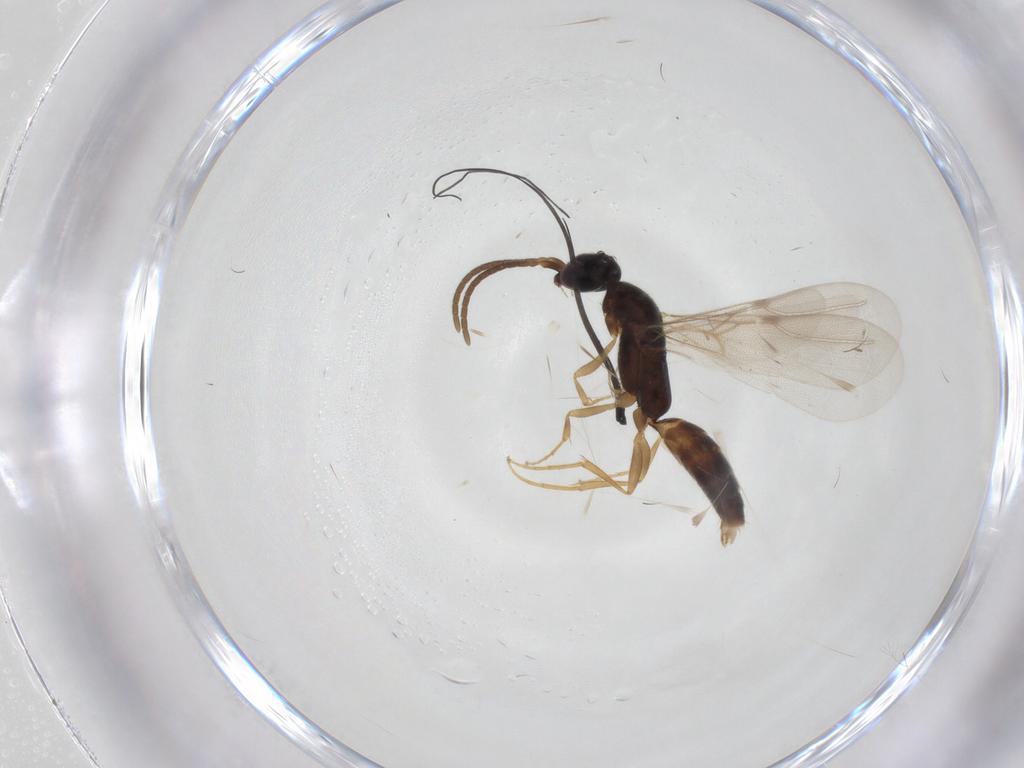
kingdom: Animalia
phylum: Arthropoda
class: Insecta
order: Hymenoptera
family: Bethylidae
